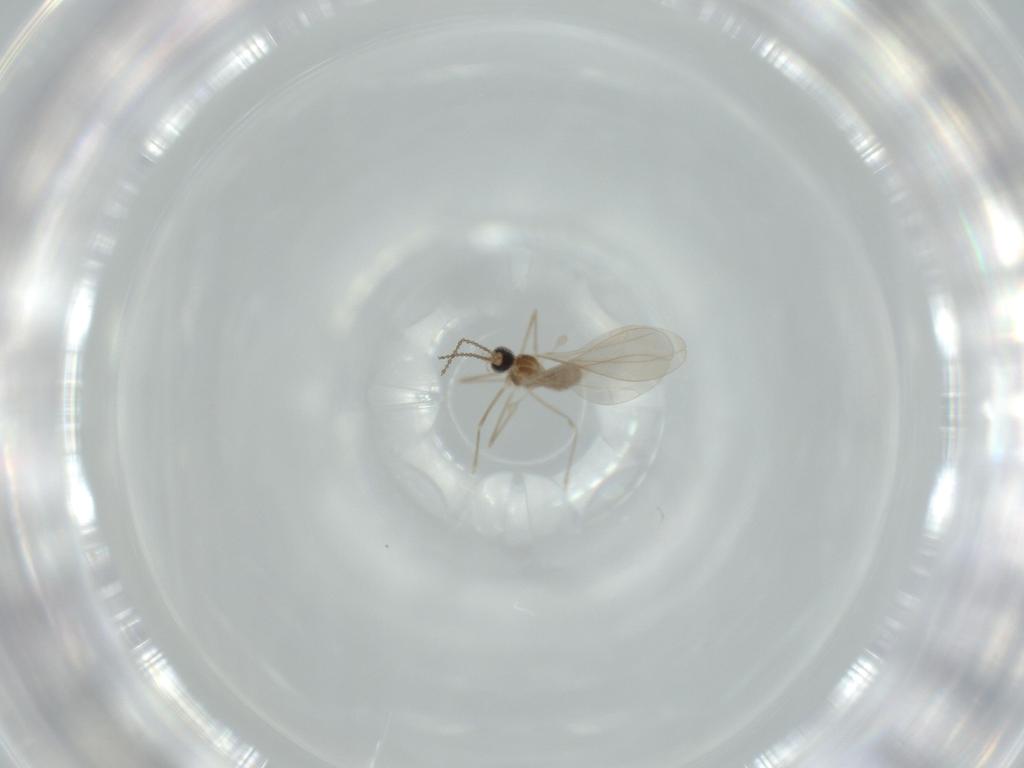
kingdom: Animalia
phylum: Arthropoda
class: Insecta
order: Diptera
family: Cecidomyiidae
